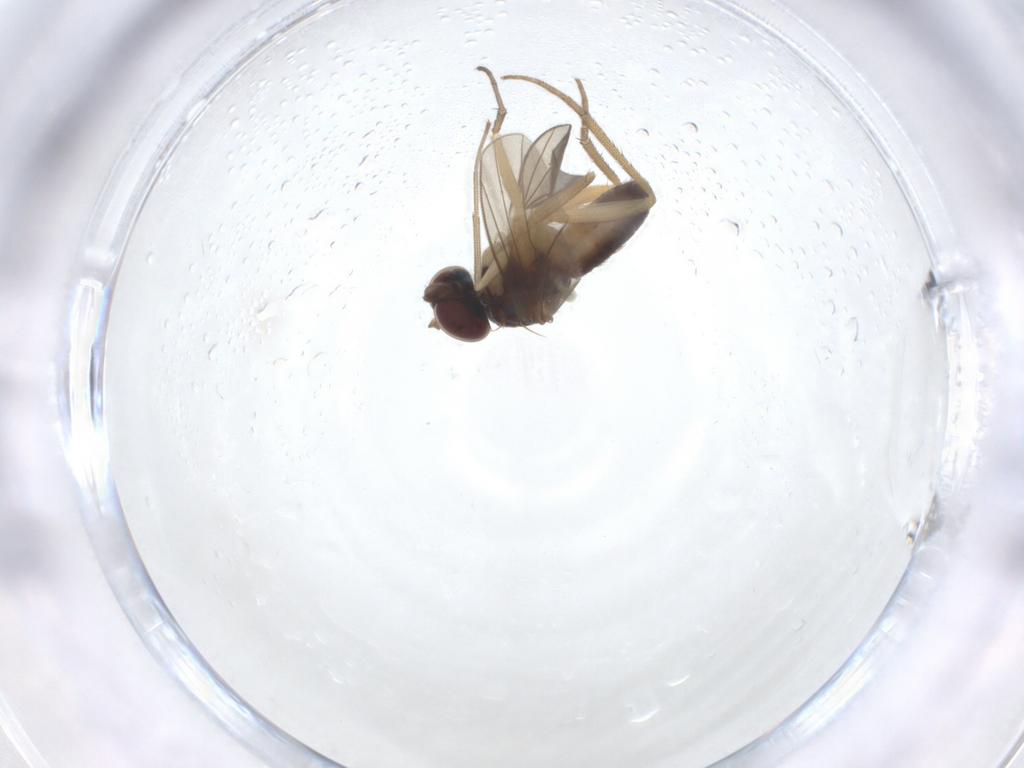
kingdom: Animalia
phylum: Arthropoda
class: Insecta
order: Diptera
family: Dolichopodidae
